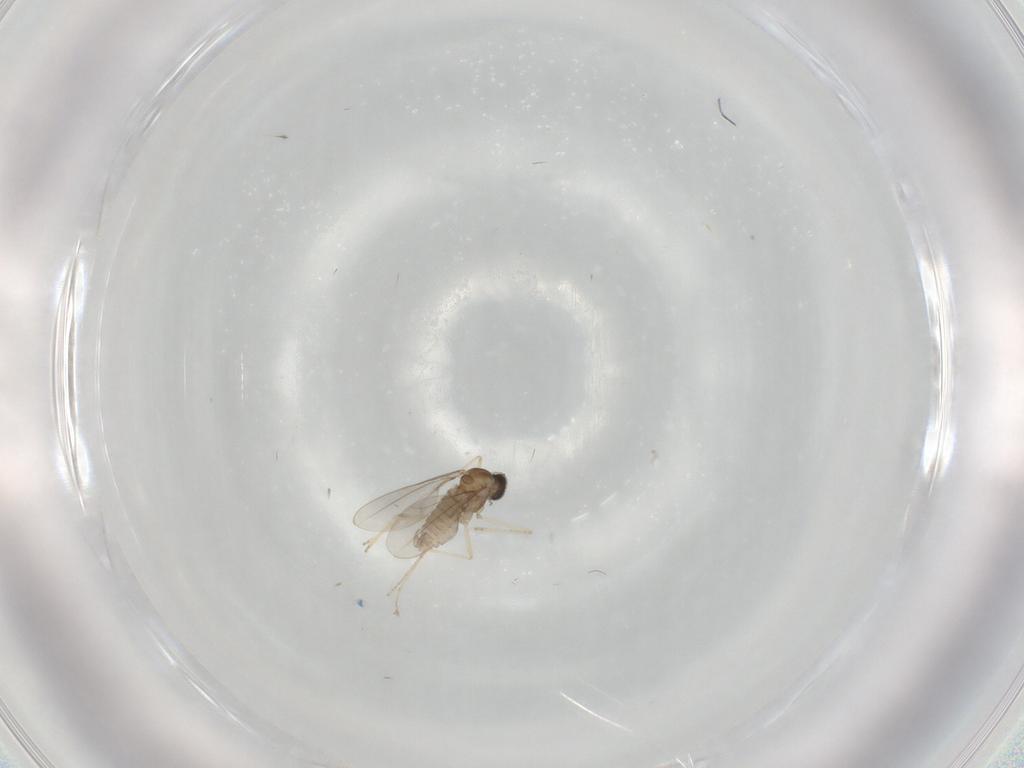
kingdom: Animalia
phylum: Arthropoda
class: Insecta
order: Diptera
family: Cecidomyiidae
